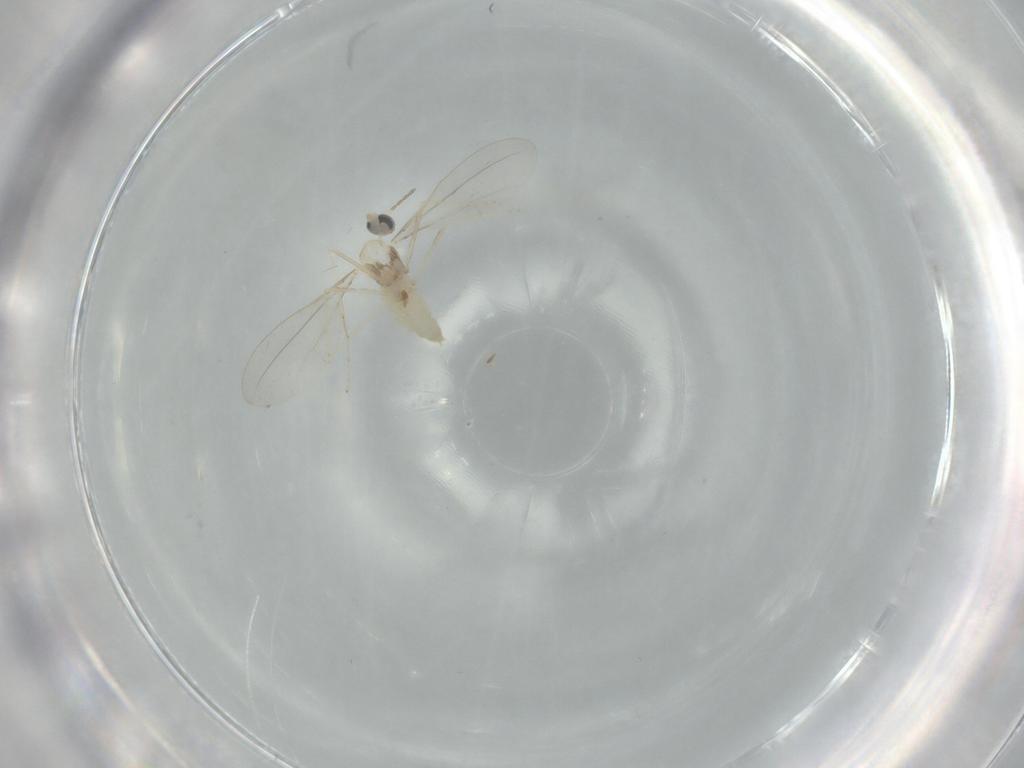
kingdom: Animalia
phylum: Arthropoda
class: Insecta
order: Diptera
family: Cecidomyiidae
